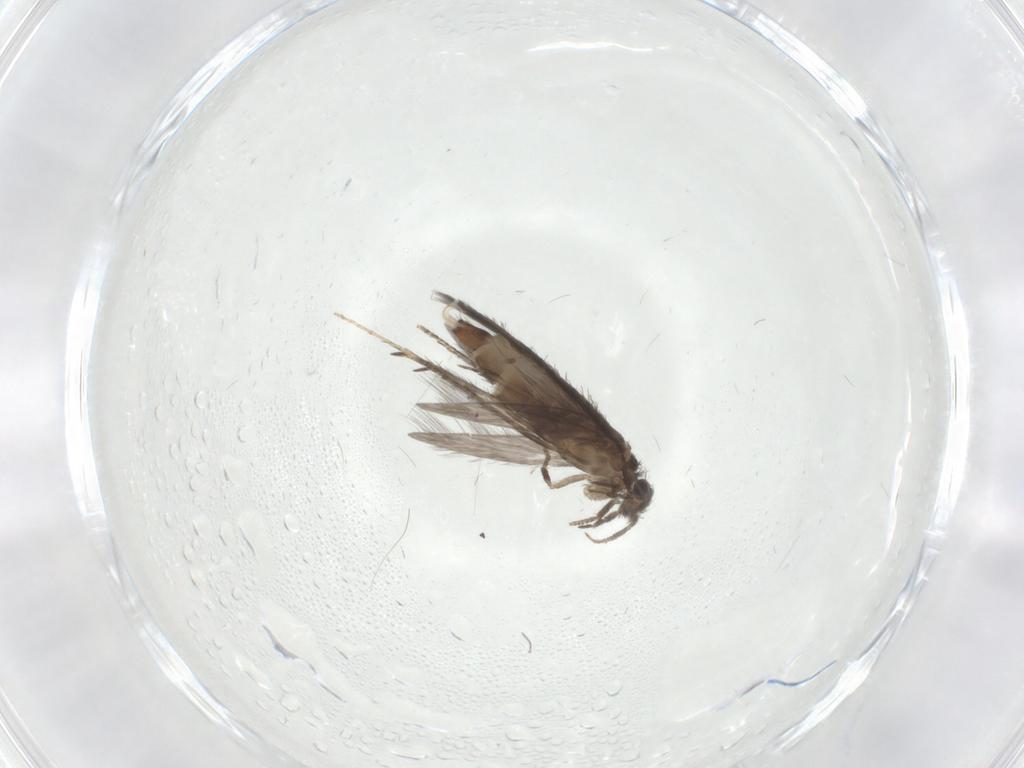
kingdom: Animalia
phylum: Arthropoda
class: Insecta
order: Trichoptera
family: Hydroptilidae
